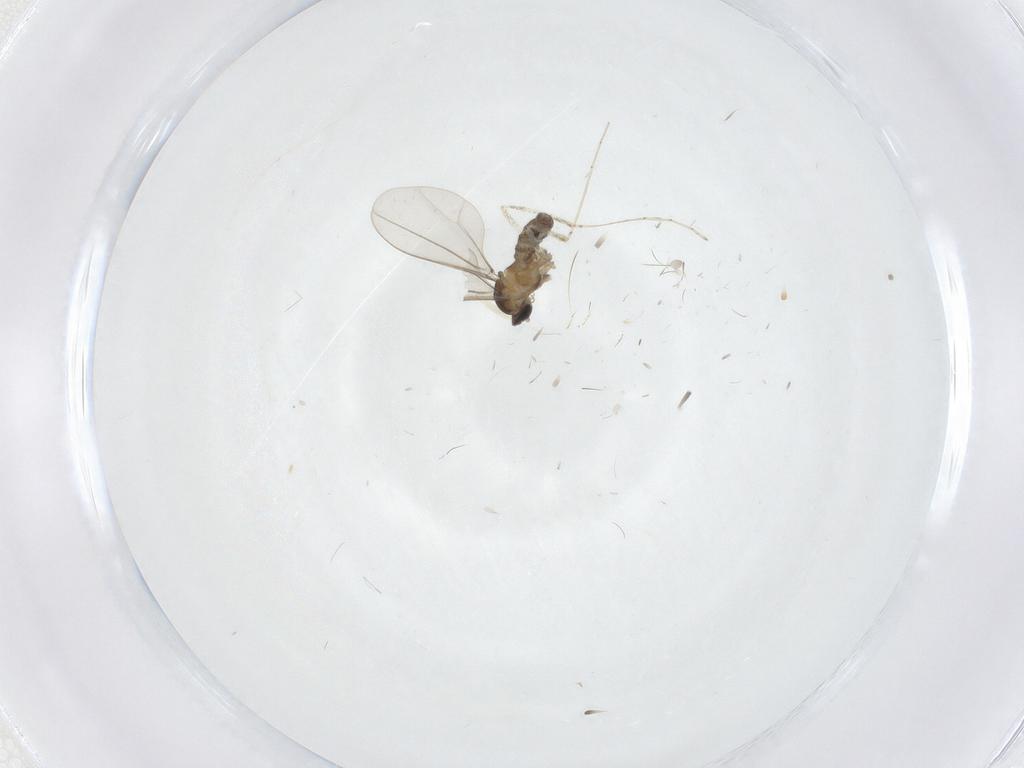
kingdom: Animalia
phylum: Arthropoda
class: Insecta
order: Diptera
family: Cecidomyiidae
